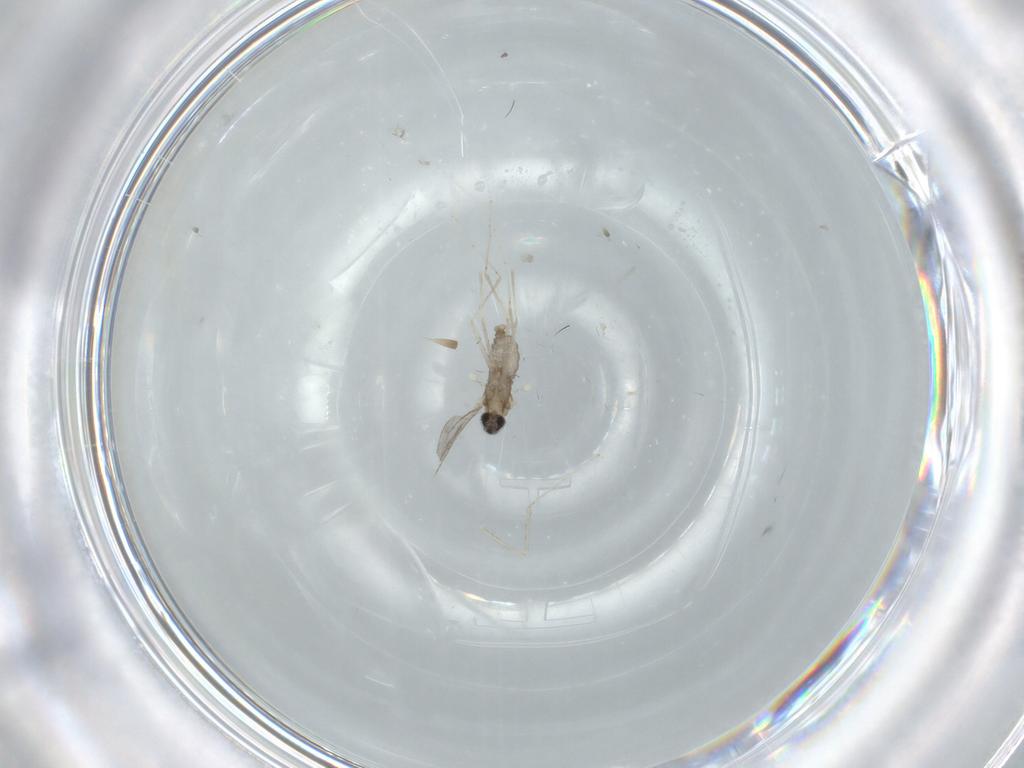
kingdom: Animalia
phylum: Arthropoda
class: Insecta
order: Diptera
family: Cecidomyiidae
